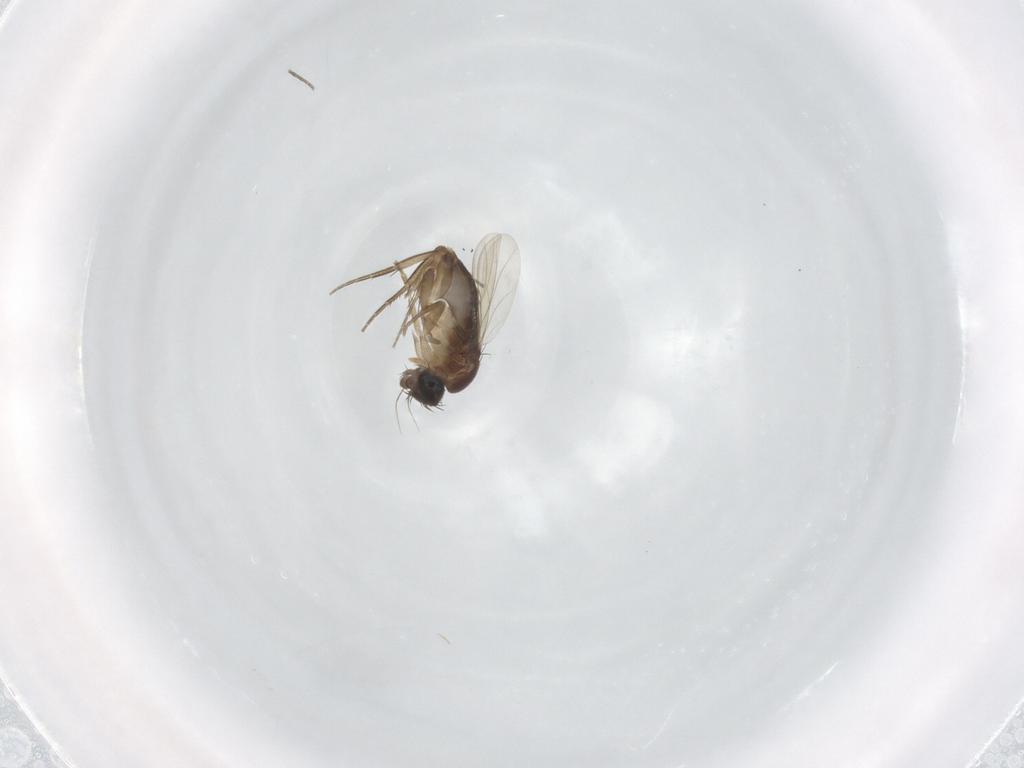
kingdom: Animalia
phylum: Arthropoda
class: Insecta
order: Diptera
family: Phoridae
